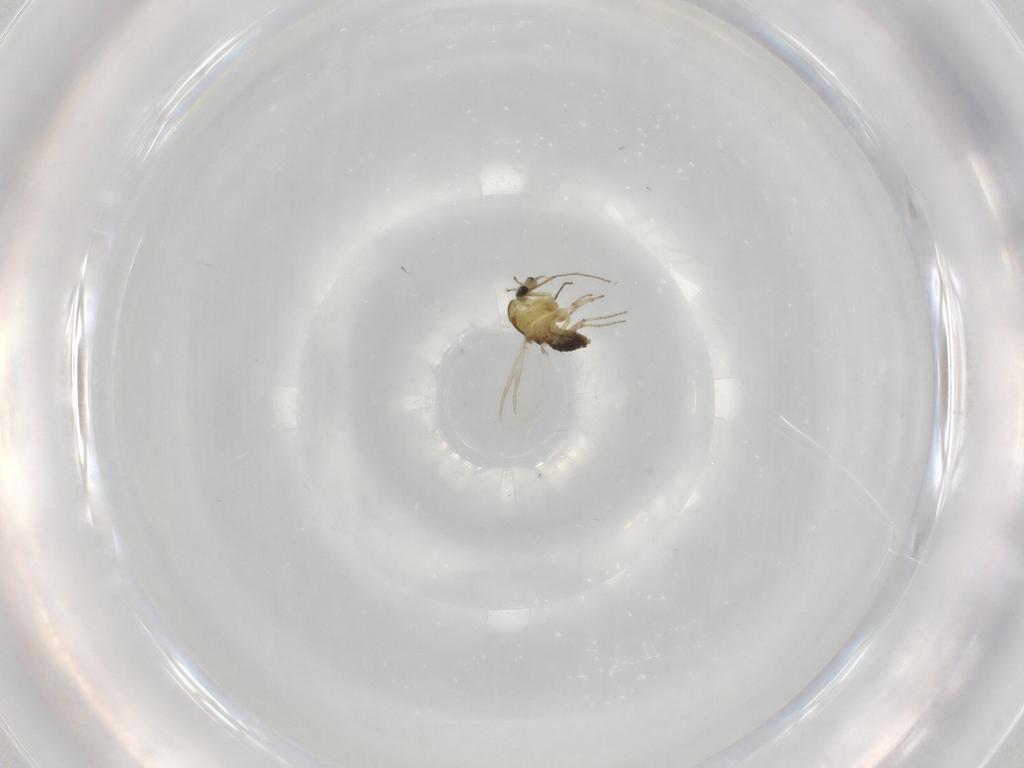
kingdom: Animalia
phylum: Arthropoda
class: Insecta
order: Diptera
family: Chironomidae
